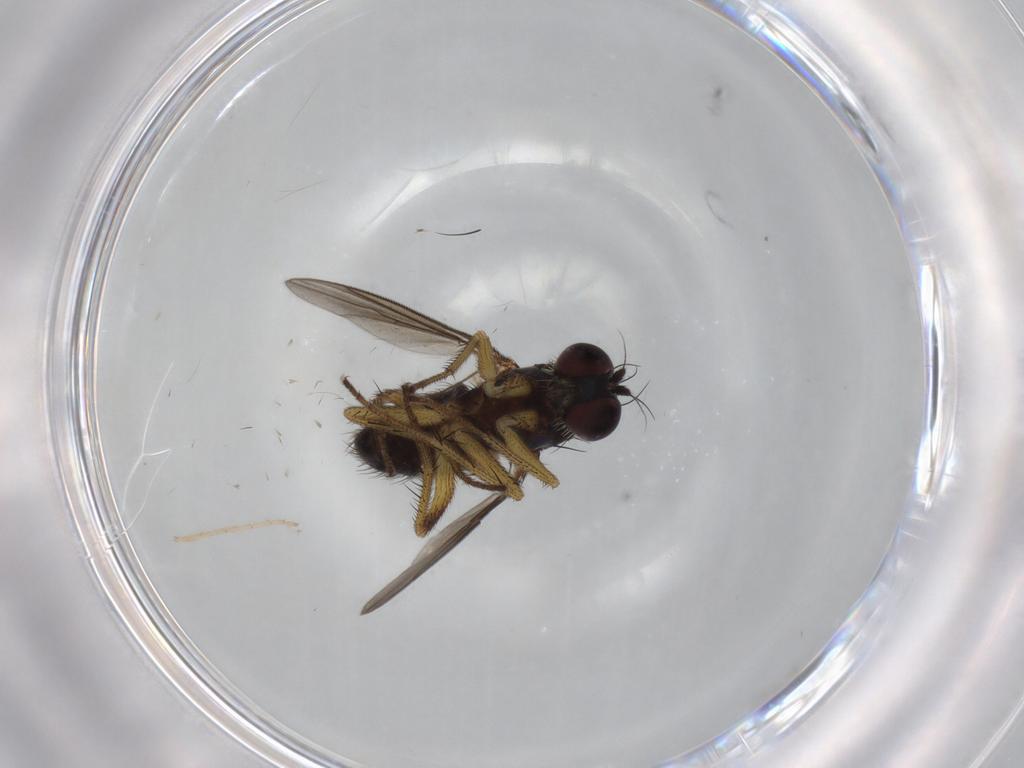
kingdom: Animalia
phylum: Arthropoda
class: Insecta
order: Diptera
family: Dolichopodidae
